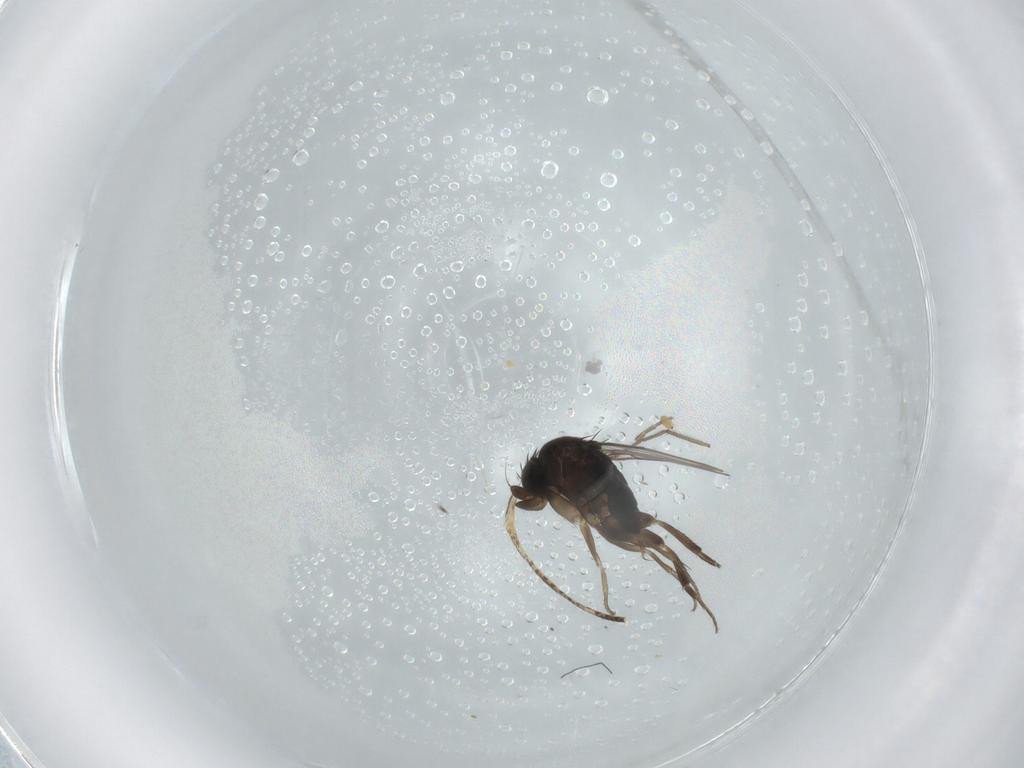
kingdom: Animalia
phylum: Arthropoda
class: Insecta
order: Diptera
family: Phoridae
